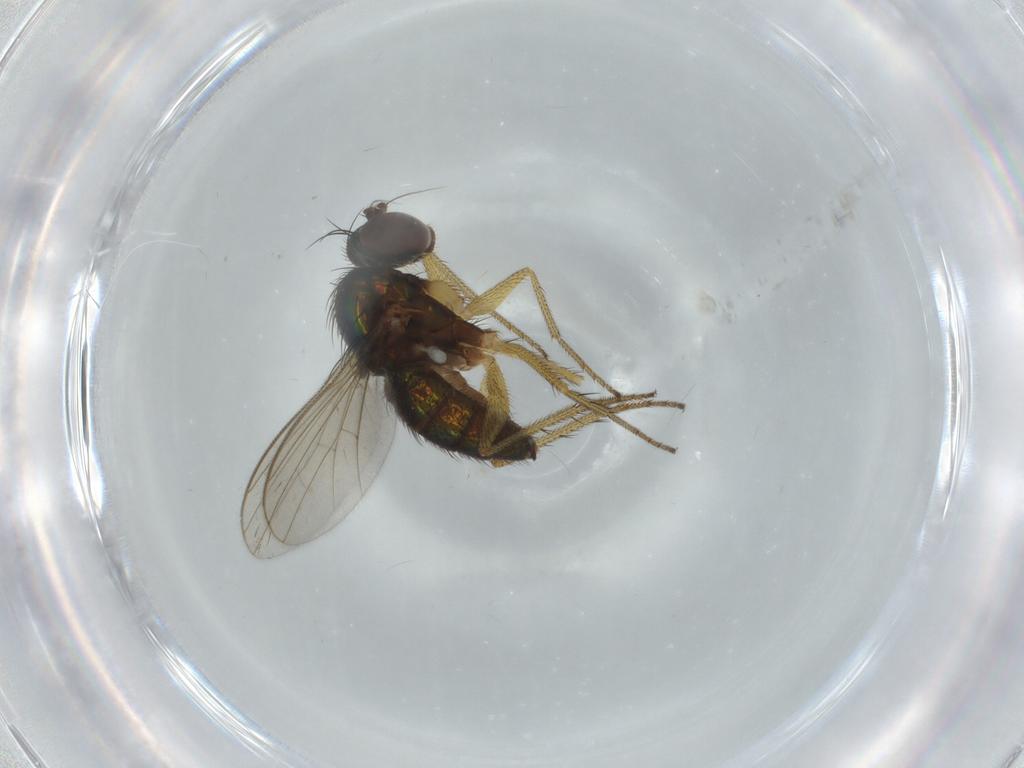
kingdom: Animalia
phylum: Arthropoda
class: Insecta
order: Diptera
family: Dolichopodidae
